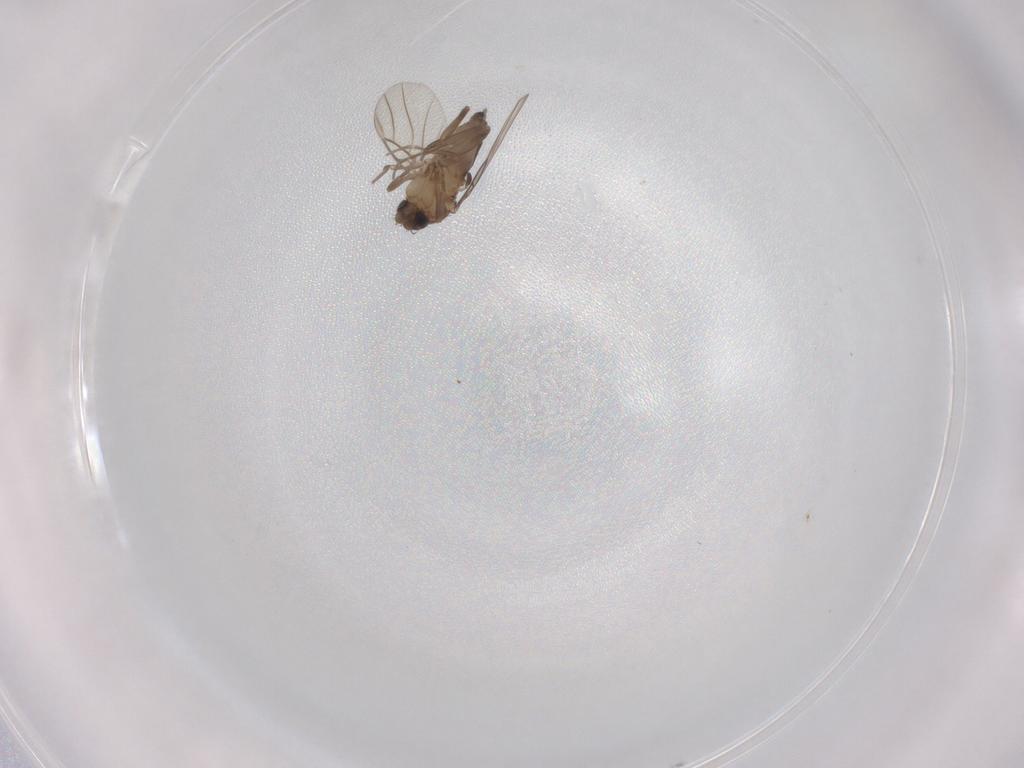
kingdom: Animalia
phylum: Arthropoda
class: Insecta
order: Diptera
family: Phoridae
